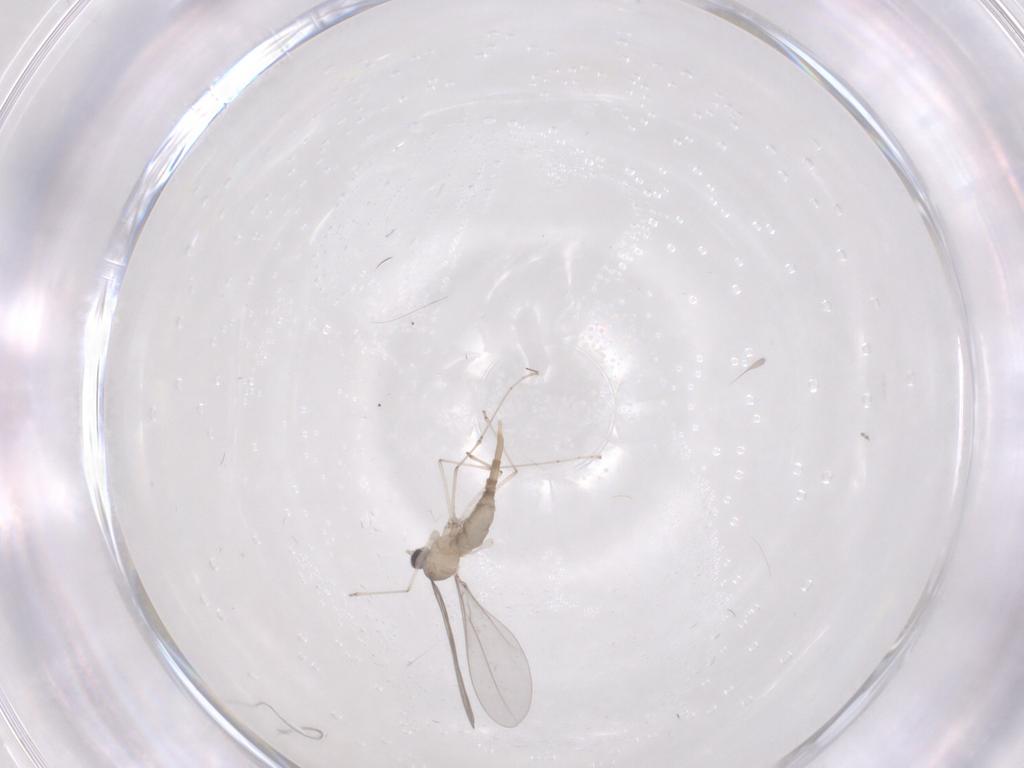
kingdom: Animalia
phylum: Arthropoda
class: Insecta
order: Diptera
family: Cecidomyiidae
